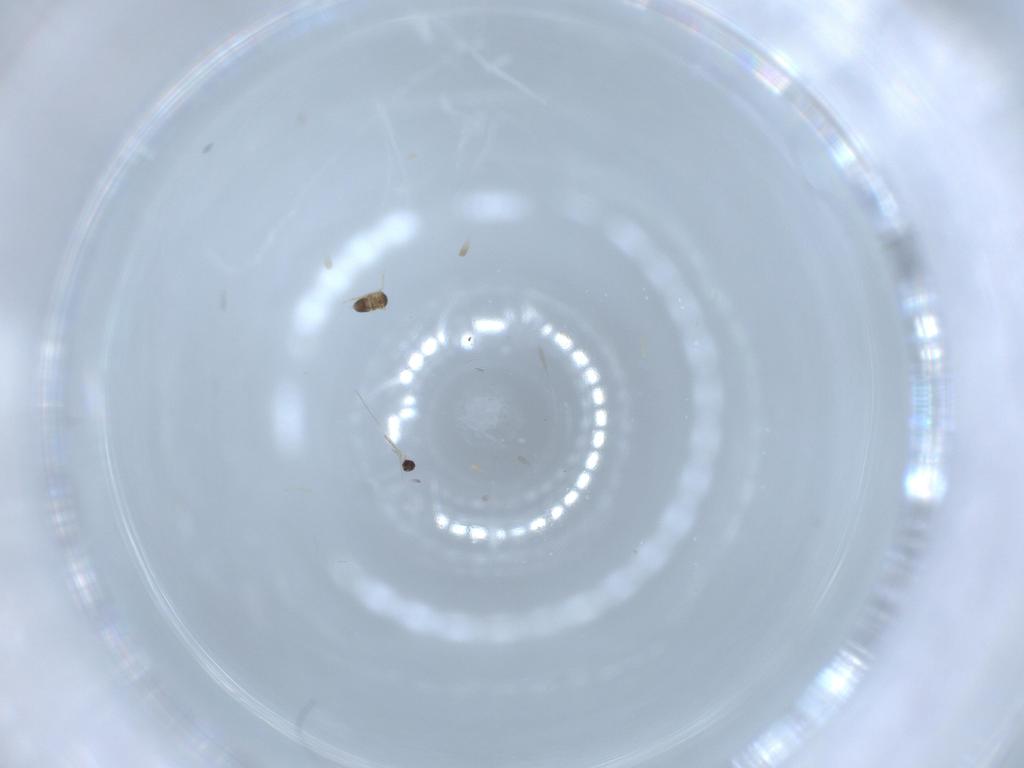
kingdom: Animalia
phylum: Arthropoda
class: Insecta
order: Hymenoptera
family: Mymaridae
